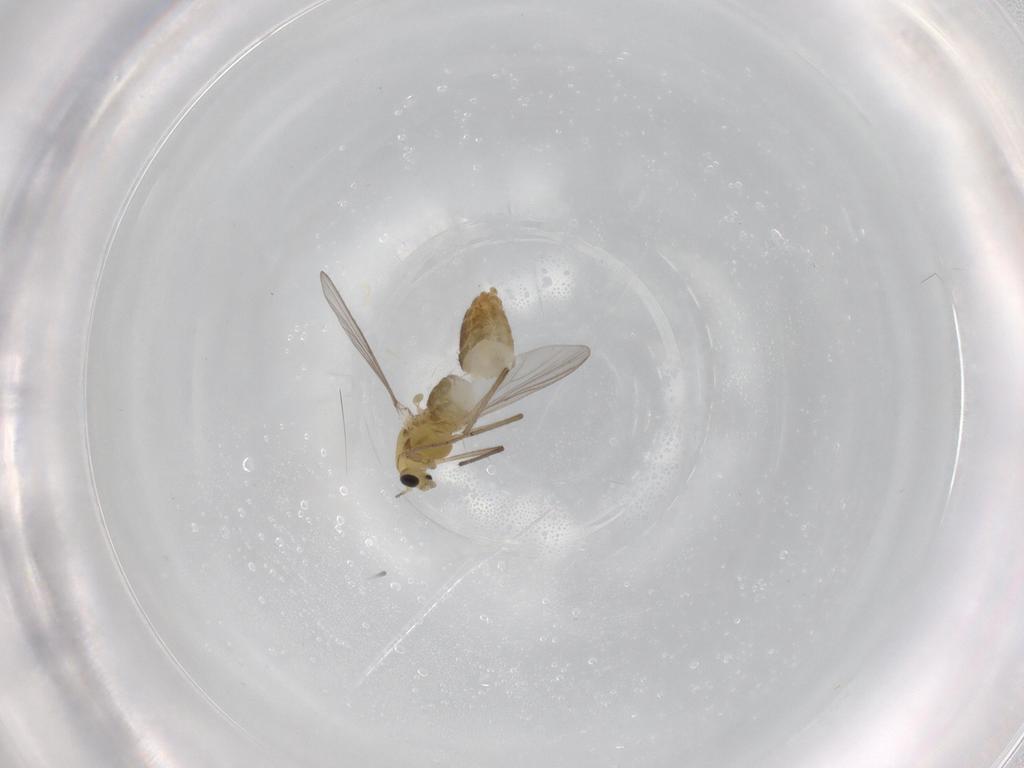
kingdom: Animalia
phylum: Arthropoda
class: Insecta
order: Diptera
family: Chironomidae
